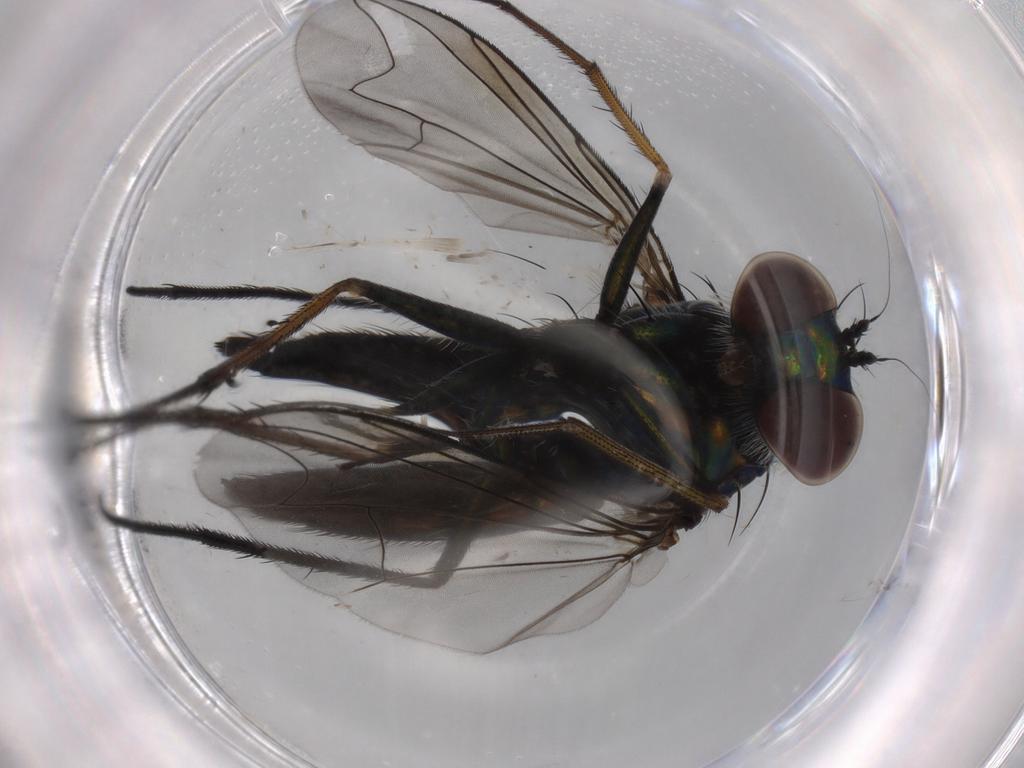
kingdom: Animalia
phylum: Arthropoda
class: Insecta
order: Diptera
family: Dolichopodidae
